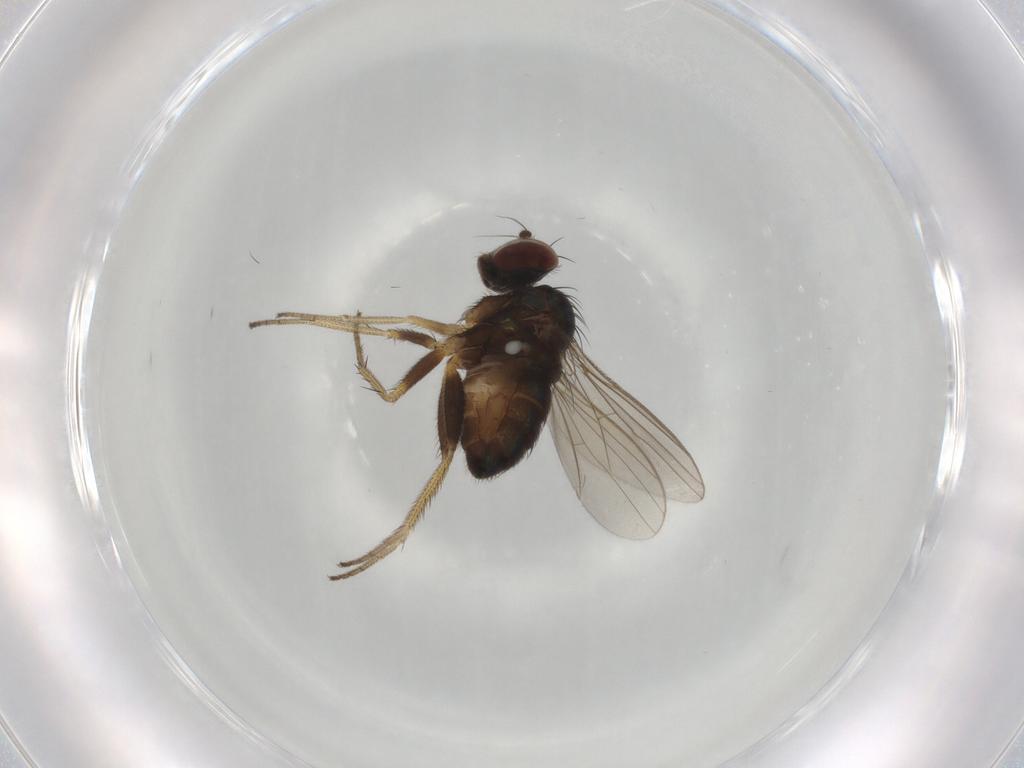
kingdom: Animalia
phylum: Arthropoda
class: Insecta
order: Diptera
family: Dolichopodidae
